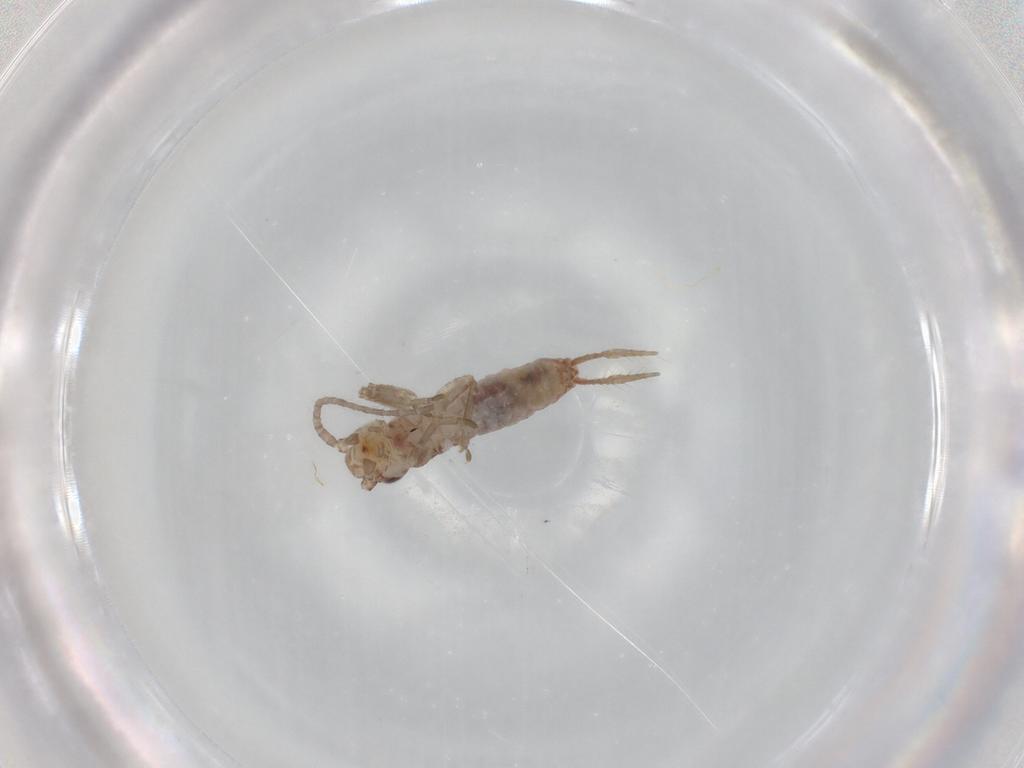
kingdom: Animalia
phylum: Arthropoda
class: Insecta
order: Orthoptera
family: Mogoplistidae
